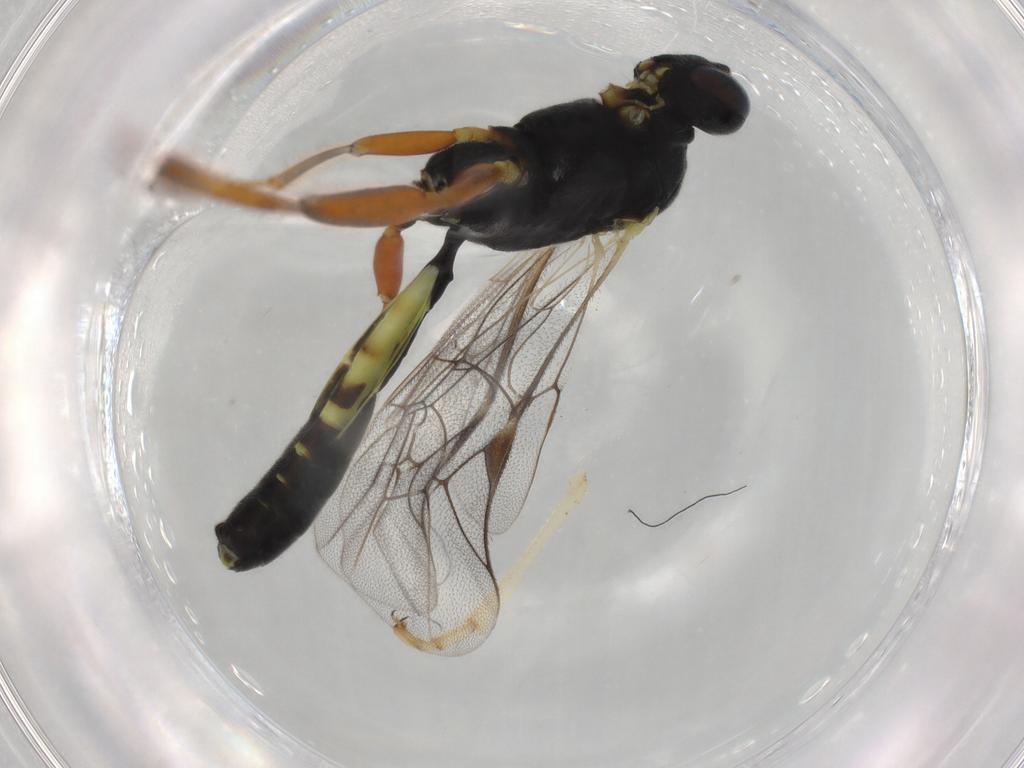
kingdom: Animalia
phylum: Arthropoda
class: Insecta
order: Hymenoptera
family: Ichneumonidae
